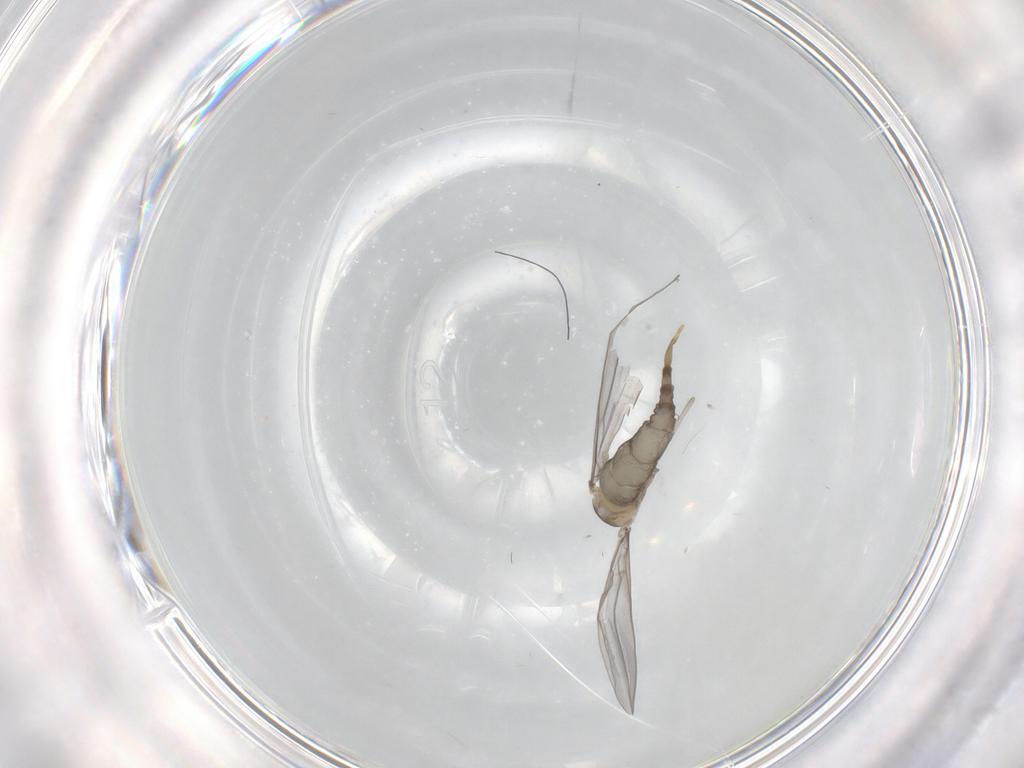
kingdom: Animalia
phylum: Arthropoda
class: Insecta
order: Diptera
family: Cecidomyiidae
